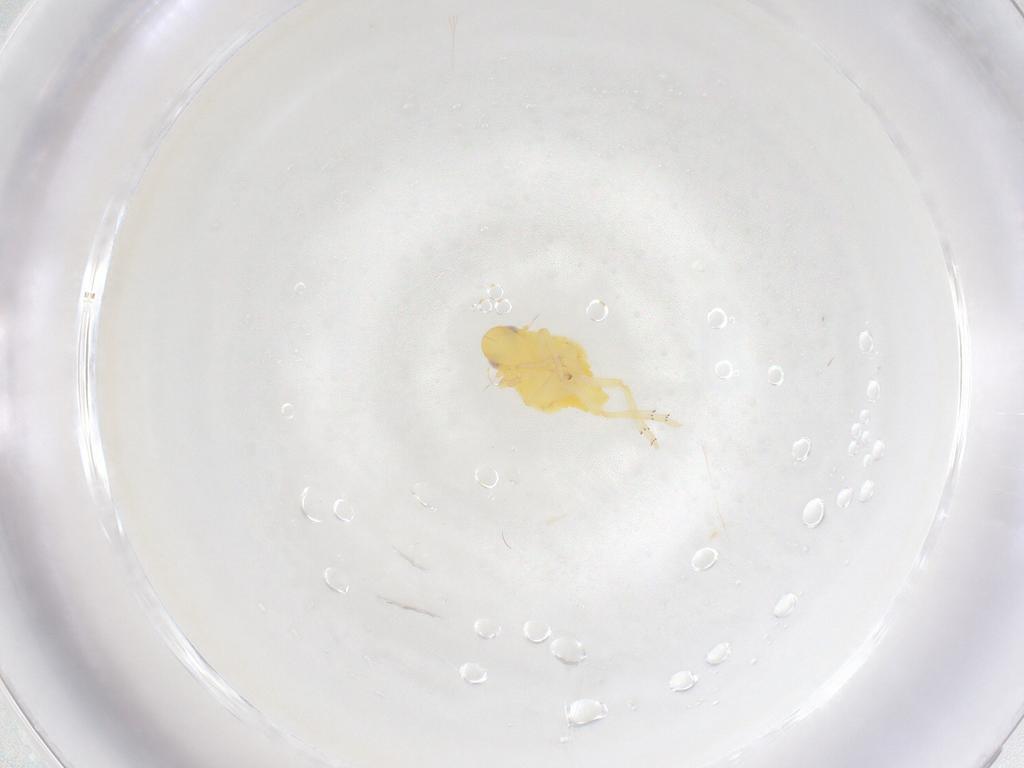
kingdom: Animalia
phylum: Arthropoda
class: Insecta
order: Hemiptera
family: Tropiduchidae
